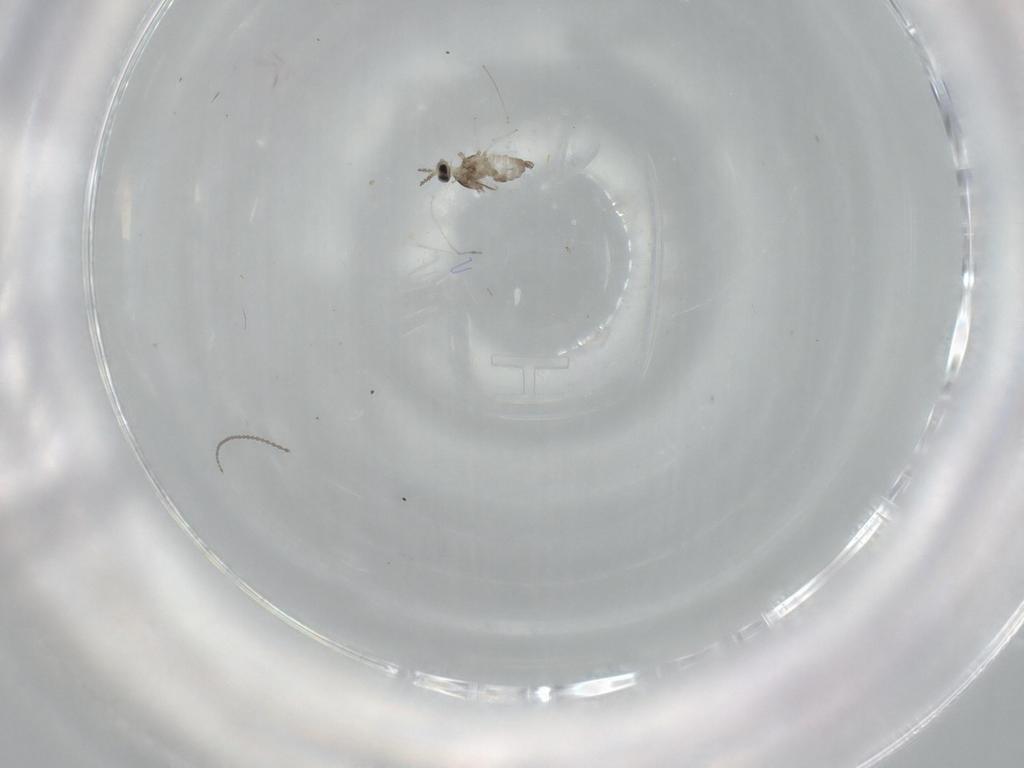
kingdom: Animalia
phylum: Arthropoda
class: Insecta
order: Diptera
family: Cecidomyiidae
